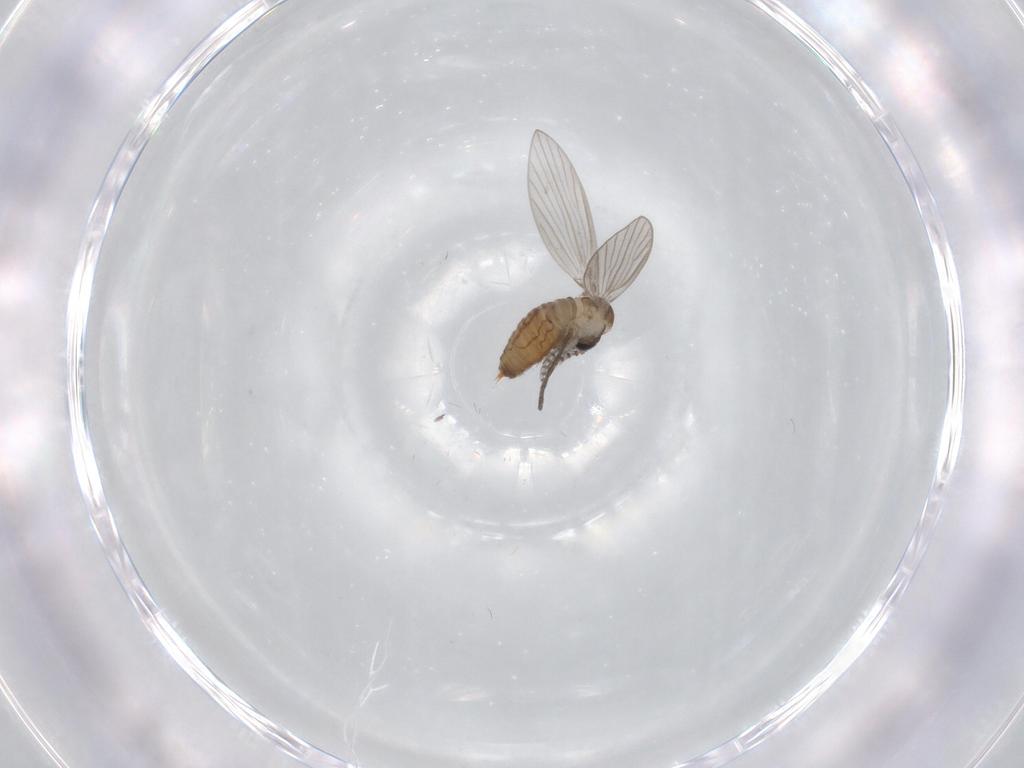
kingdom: Animalia
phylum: Arthropoda
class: Insecta
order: Diptera
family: Psychodidae
